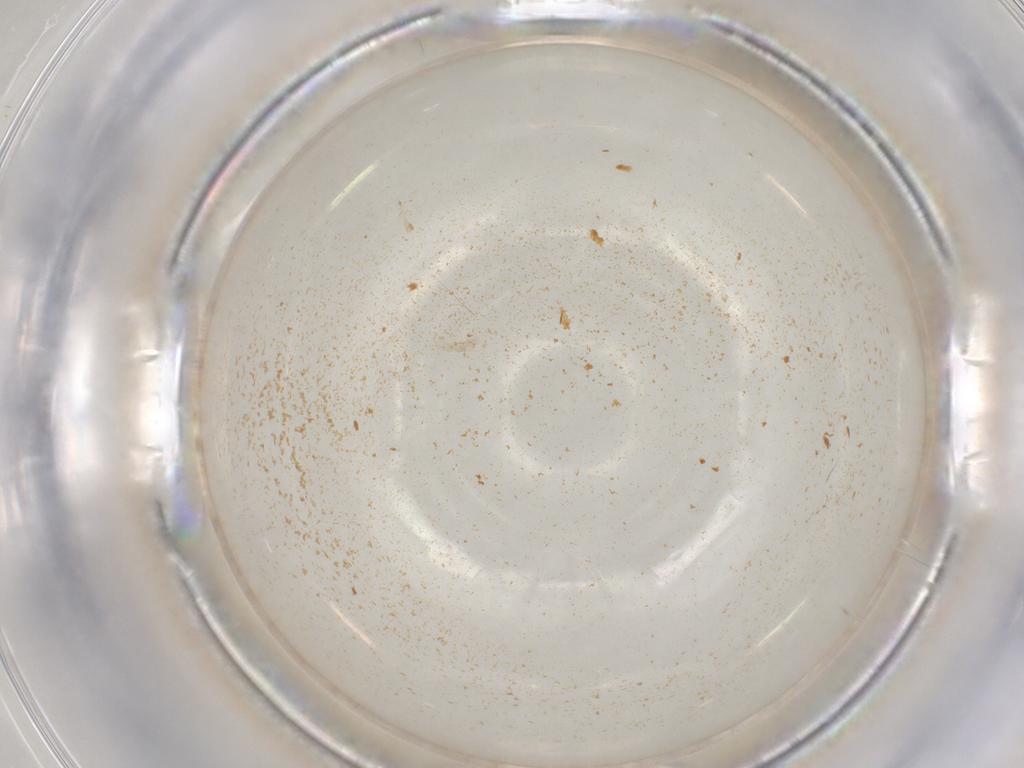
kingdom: Animalia
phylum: Arthropoda
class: Collembola
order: Symphypleona
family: Sminthuridae
